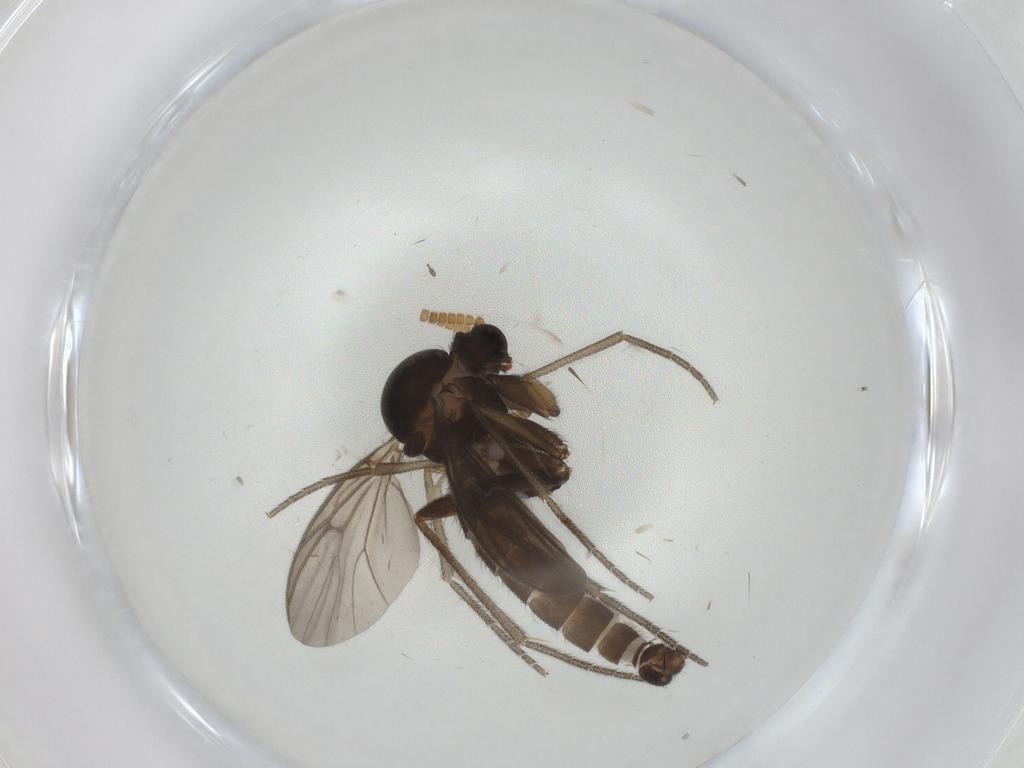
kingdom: Animalia
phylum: Arthropoda
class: Insecta
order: Diptera
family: Mycetophilidae
